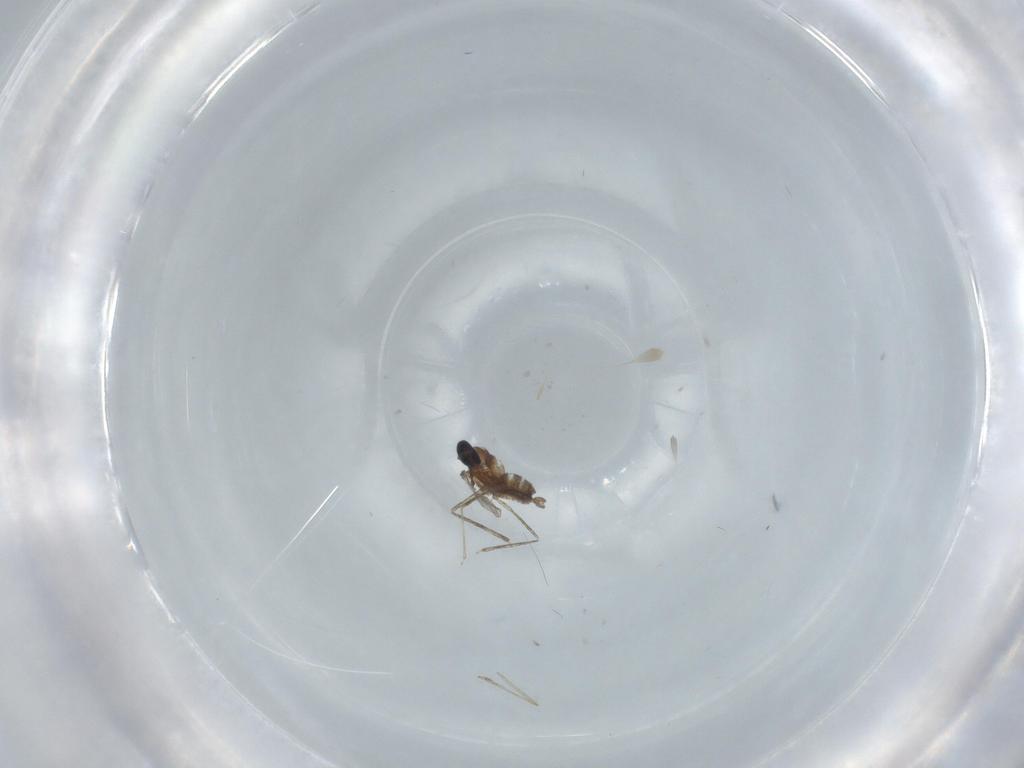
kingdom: Animalia
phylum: Arthropoda
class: Insecta
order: Diptera
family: Cecidomyiidae
